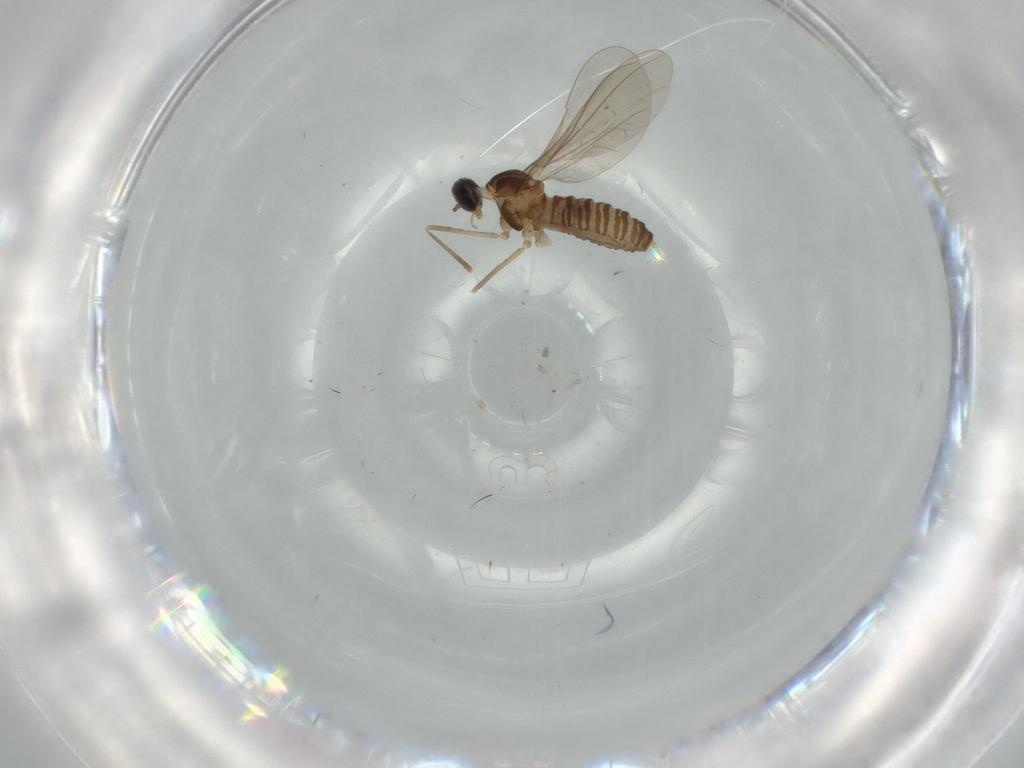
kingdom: Animalia
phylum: Arthropoda
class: Insecta
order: Diptera
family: Cecidomyiidae
